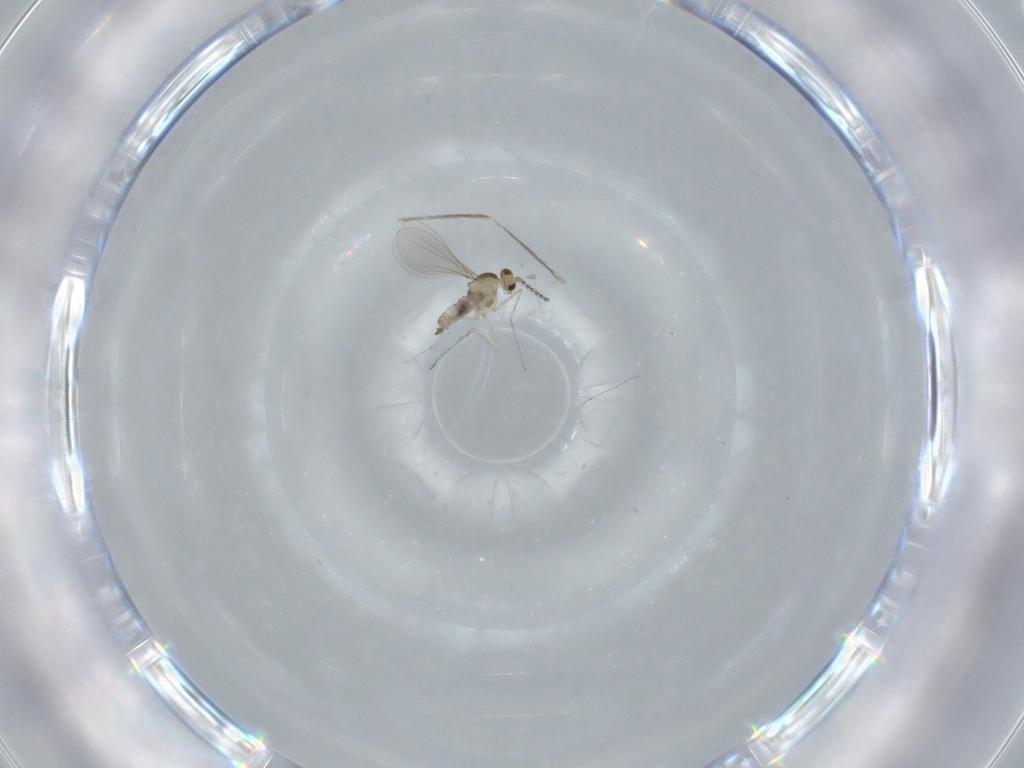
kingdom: Animalia
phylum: Arthropoda
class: Insecta
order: Diptera
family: Cecidomyiidae
